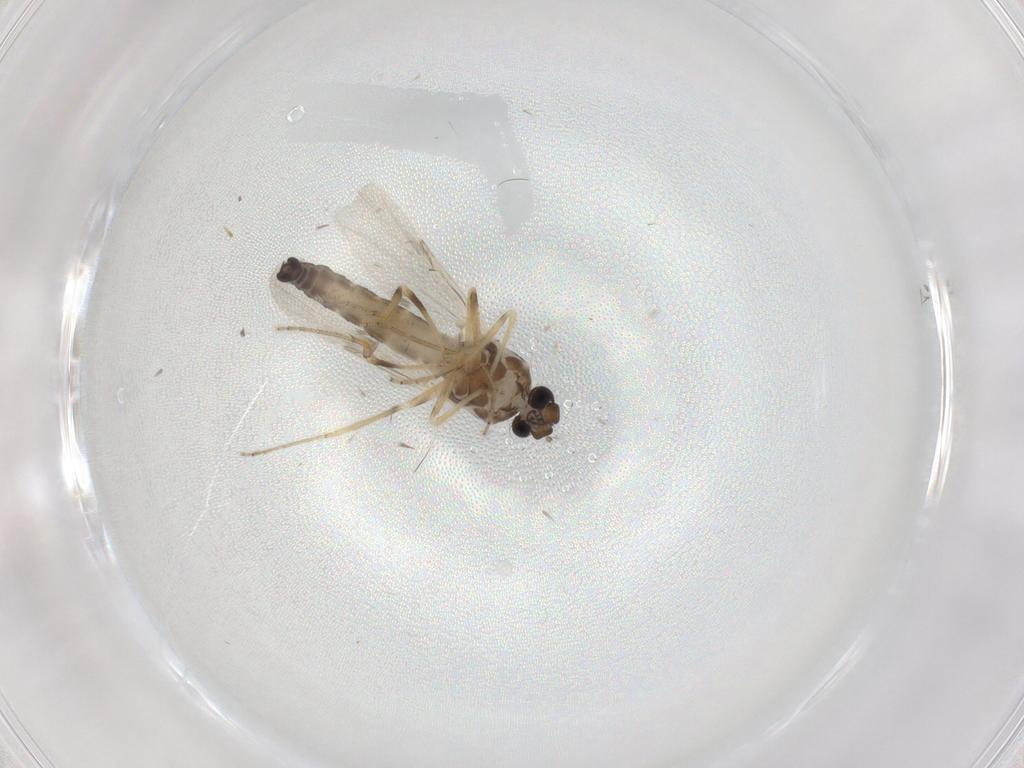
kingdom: Animalia
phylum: Arthropoda
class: Insecta
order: Diptera
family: Ceratopogonidae
